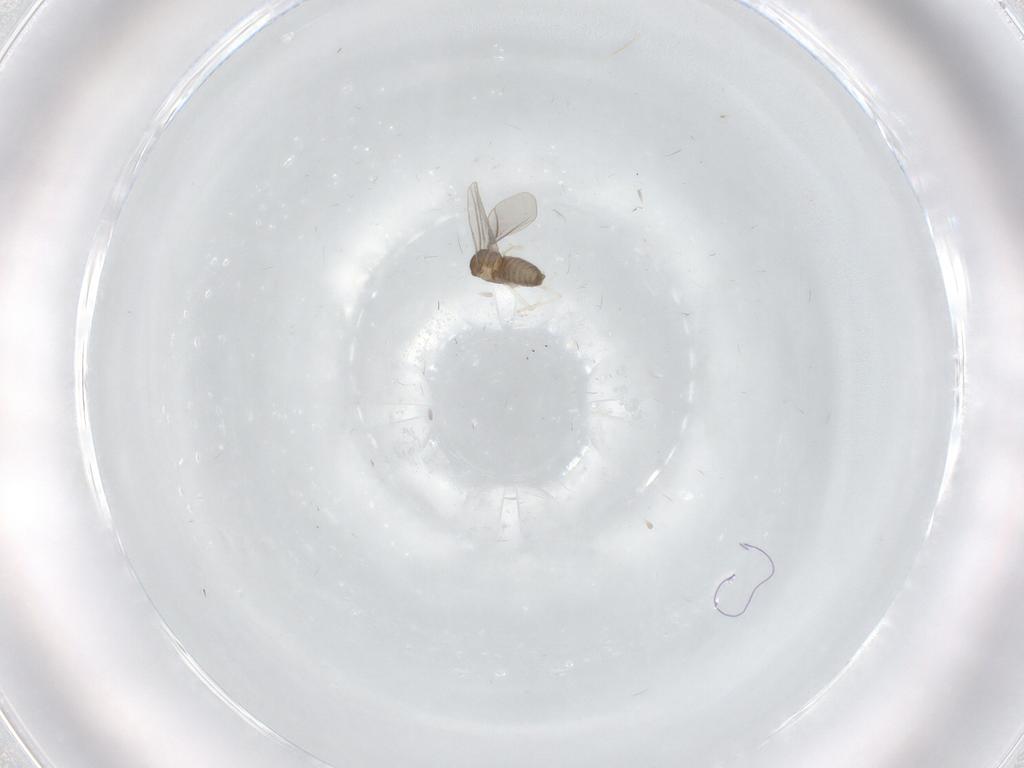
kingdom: Animalia
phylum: Arthropoda
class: Insecta
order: Diptera
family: Cecidomyiidae
